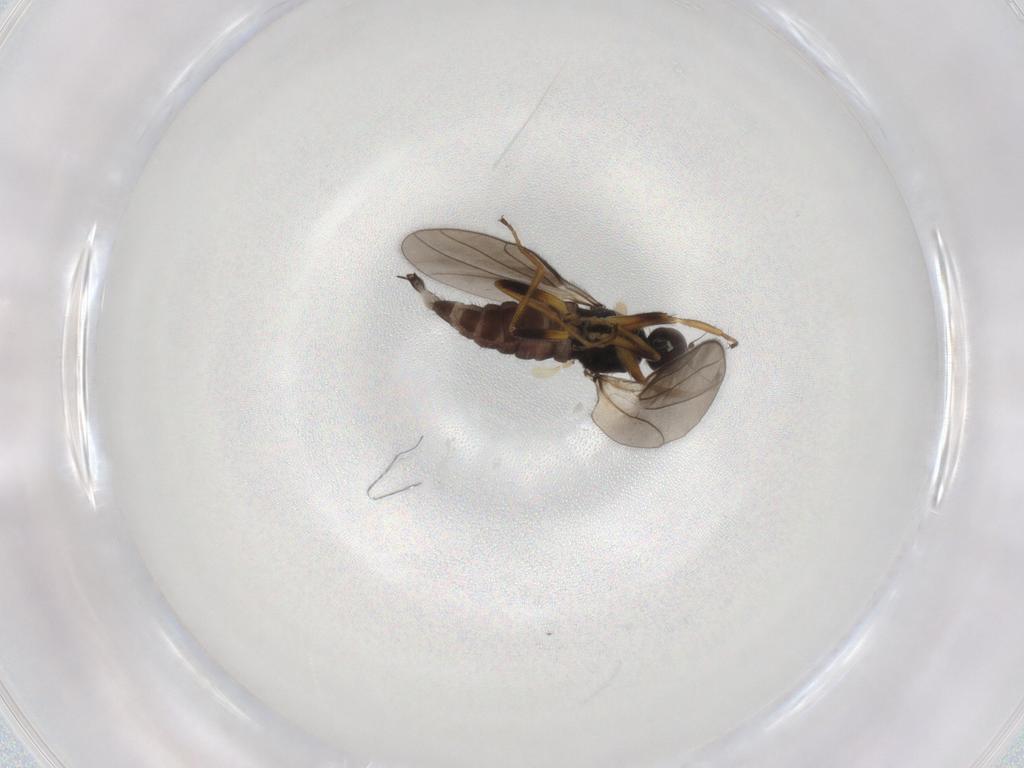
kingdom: Animalia
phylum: Arthropoda
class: Insecta
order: Diptera
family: Hybotidae
